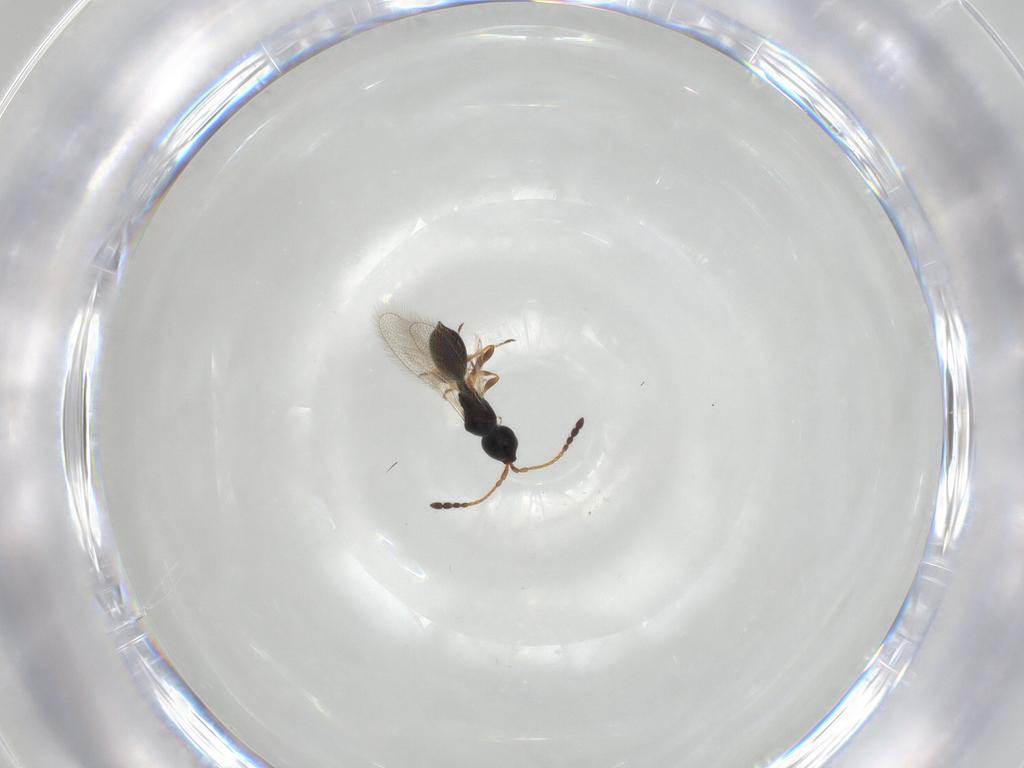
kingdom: Animalia
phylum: Arthropoda
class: Insecta
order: Hymenoptera
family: Diapriidae
